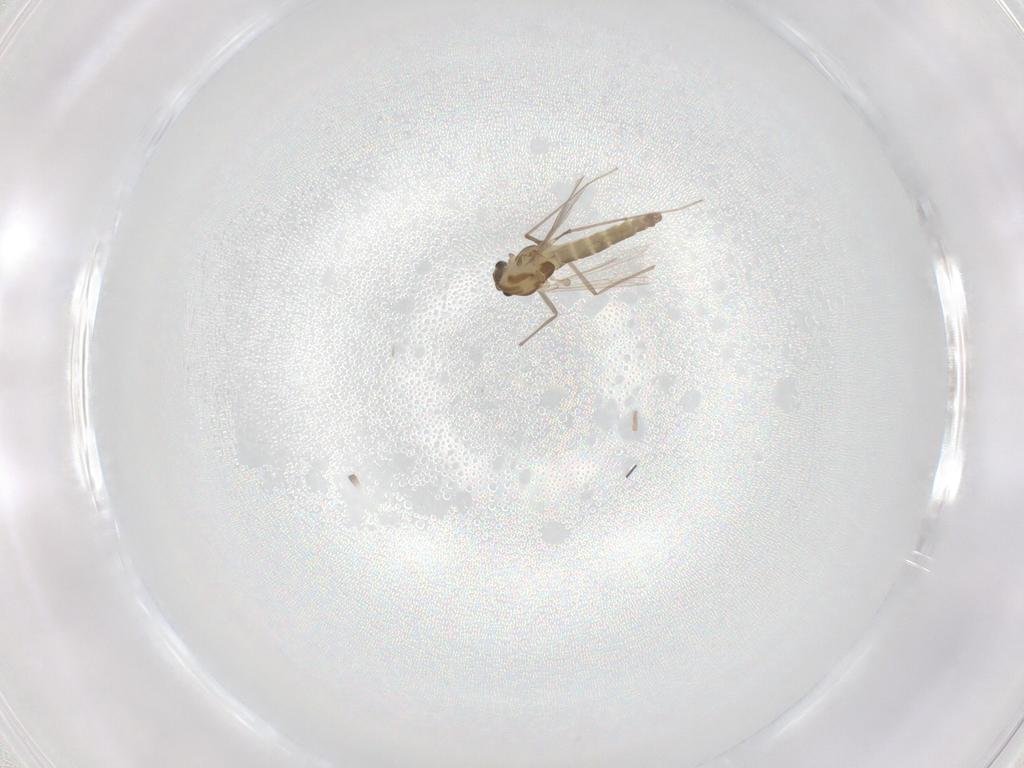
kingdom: Animalia
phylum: Arthropoda
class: Insecta
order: Diptera
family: Chironomidae
